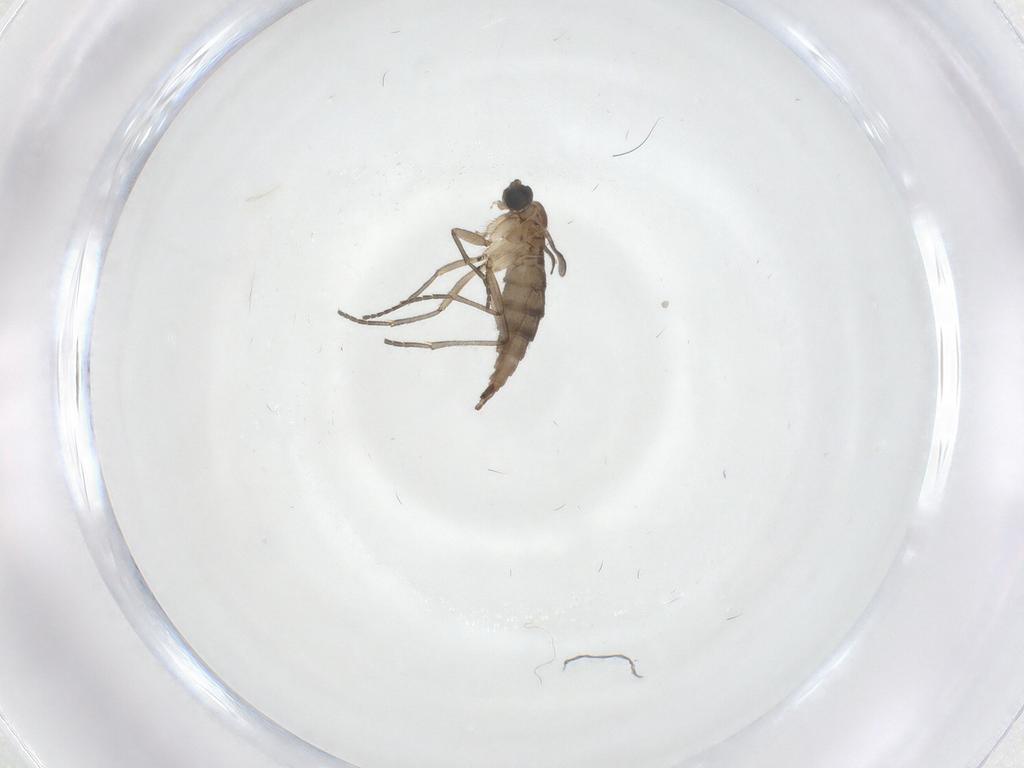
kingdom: Animalia
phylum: Arthropoda
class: Insecta
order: Diptera
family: Sciaridae
